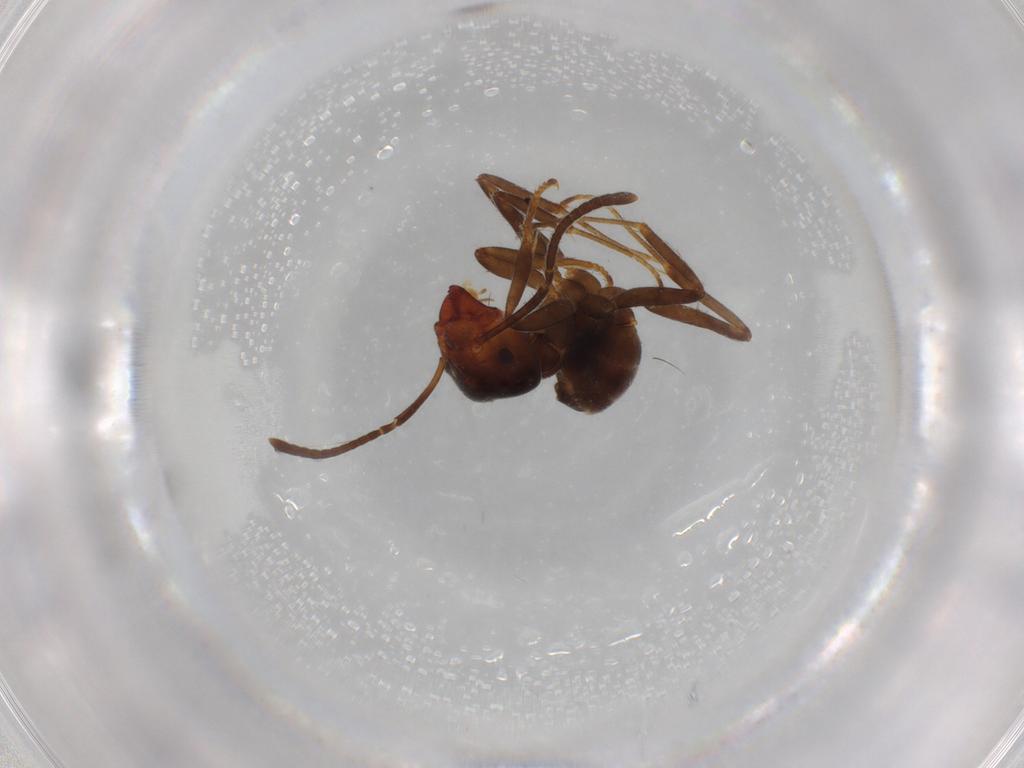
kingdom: Animalia
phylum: Arthropoda
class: Insecta
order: Hymenoptera
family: Formicidae
